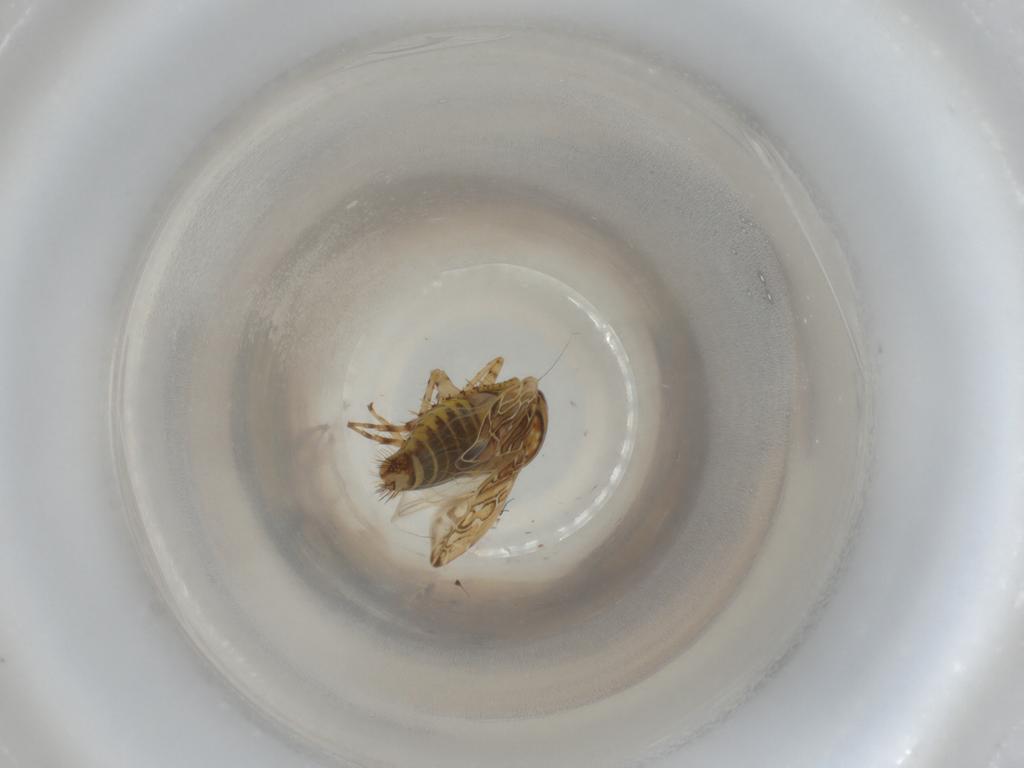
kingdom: Animalia
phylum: Arthropoda
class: Insecta
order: Hemiptera
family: Cicadellidae
